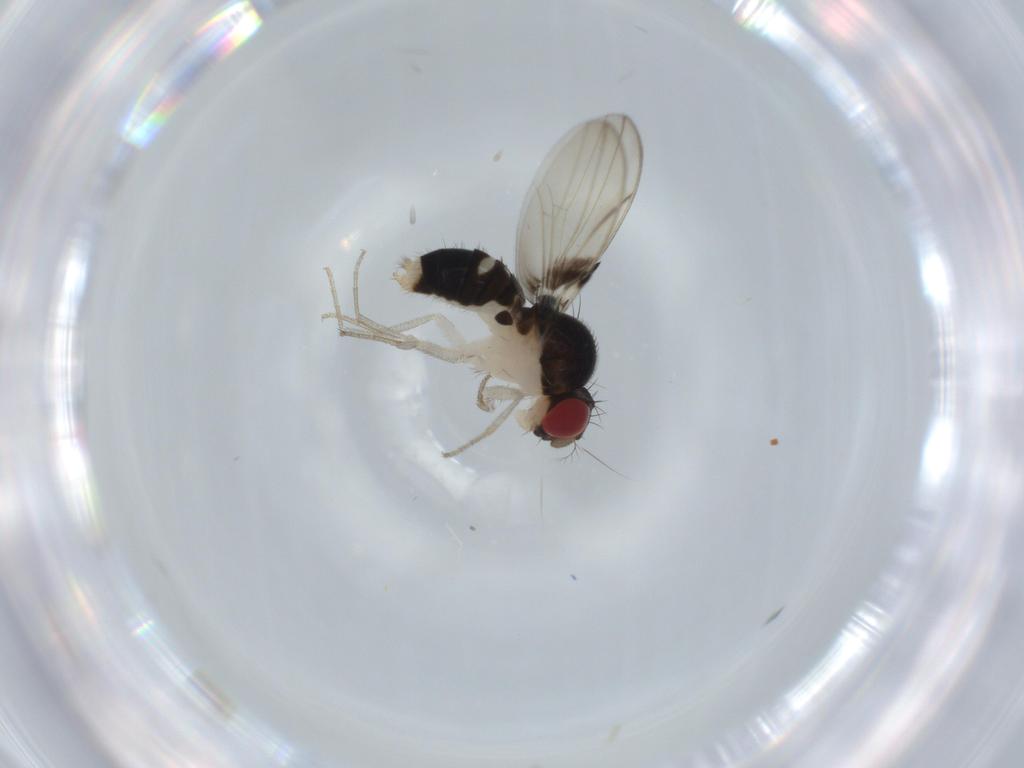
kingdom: Animalia
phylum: Arthropoda
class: Insecta
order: Diptera
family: Drosophilidae
